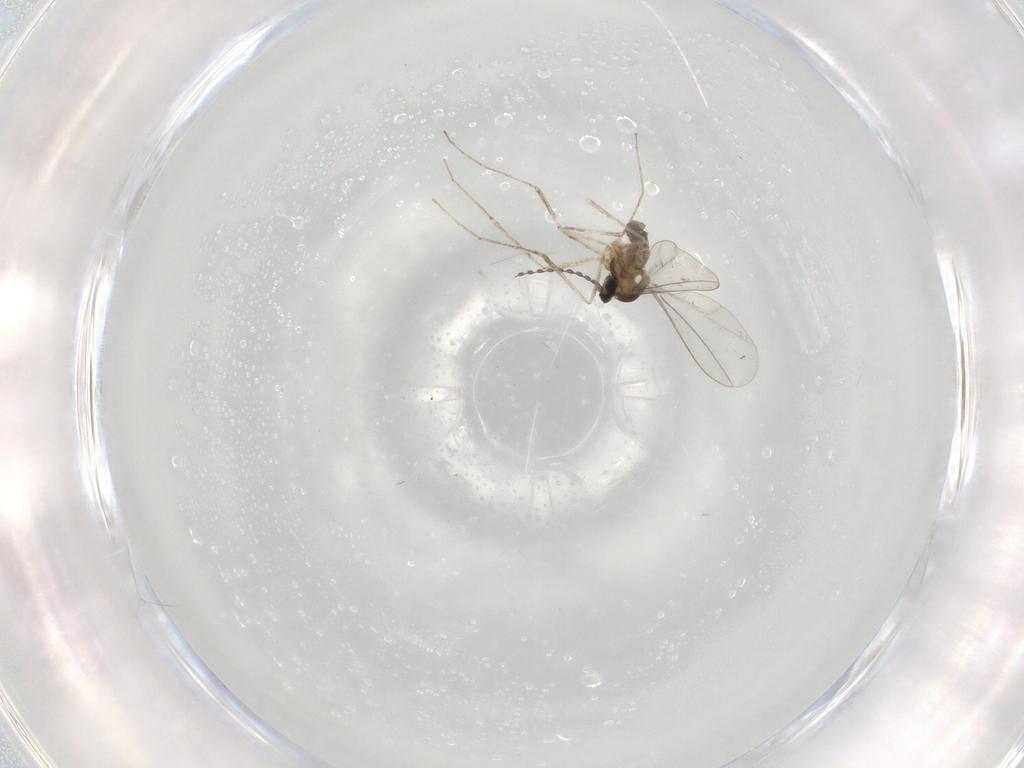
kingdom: Animalia
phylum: Arthropoda
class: Insecta
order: Diptera
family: Cecidomyiidae
